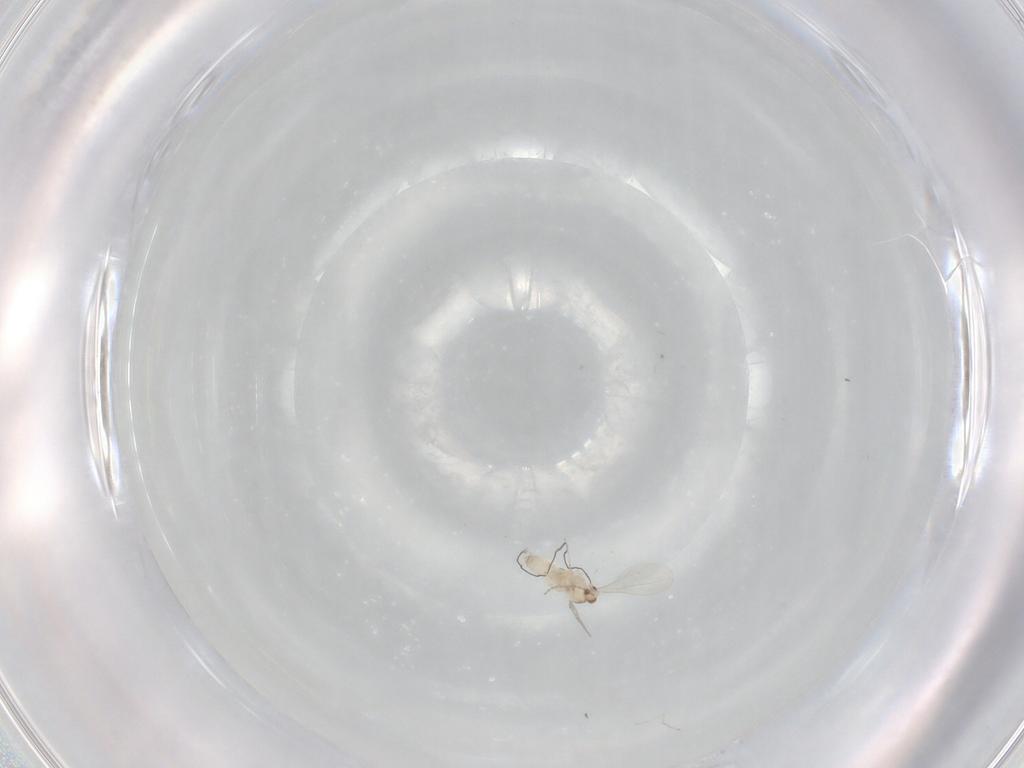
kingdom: Animalia
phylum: Arthropoda
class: Insecta
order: Diptera
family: Cecidomyiidae
